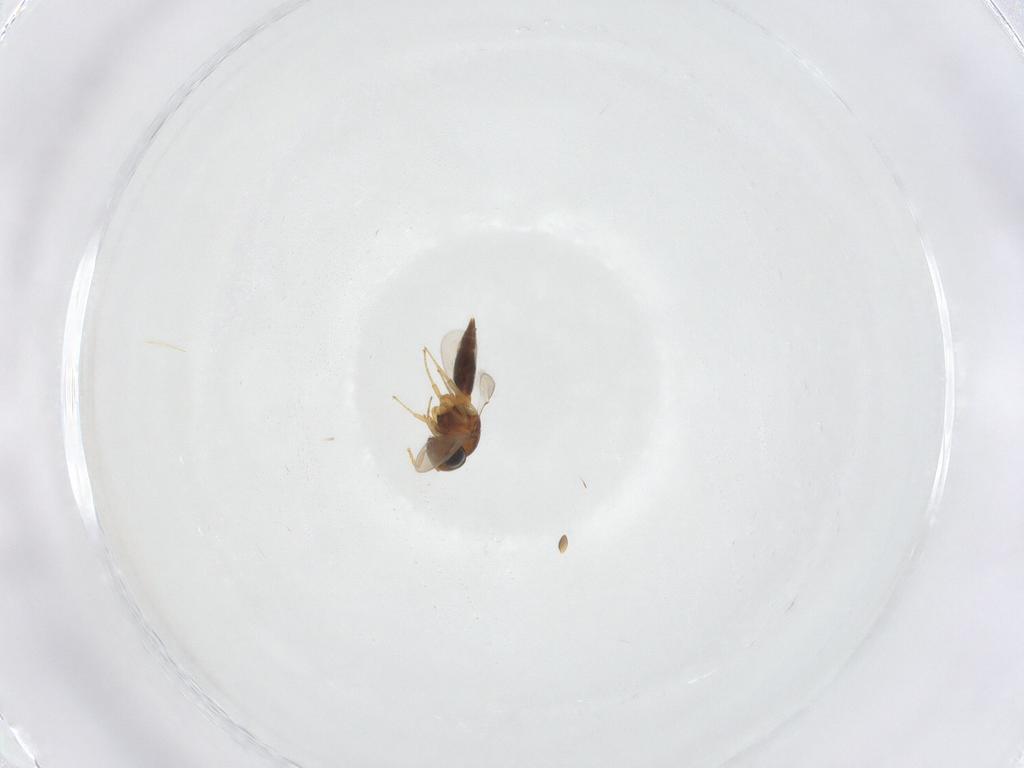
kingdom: Animalia
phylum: Arthropoda
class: Insecta
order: Hymenoptera
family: Scelionidae
